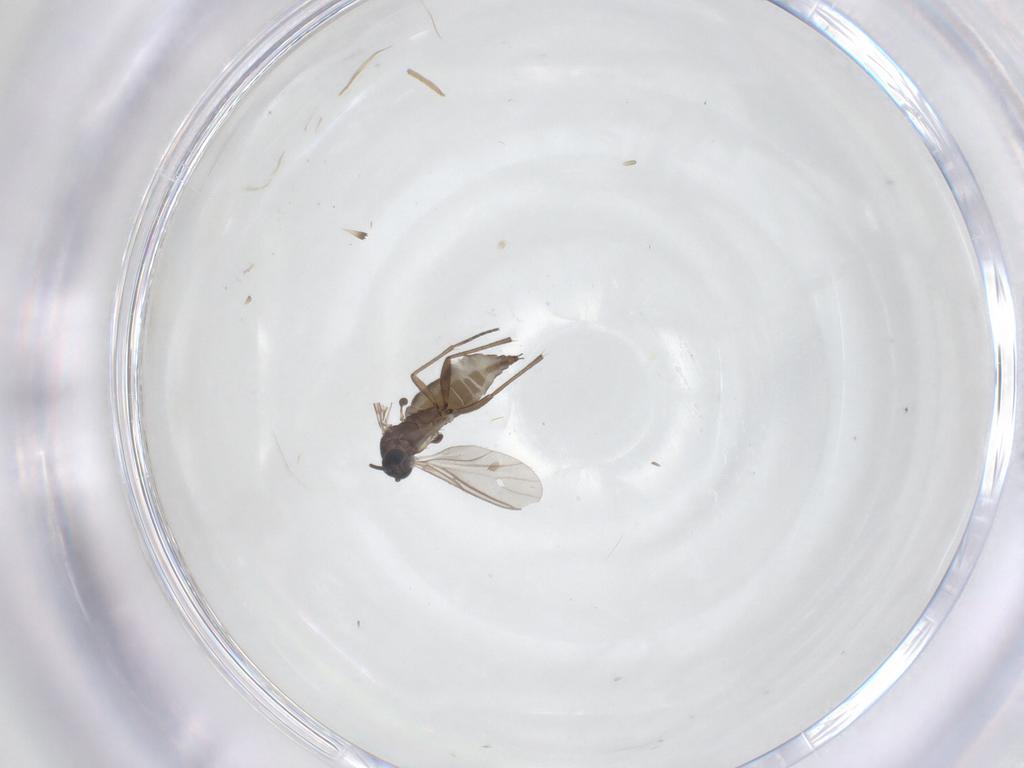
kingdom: Animalia
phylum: Arthropoda
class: Insecta
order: Diptera
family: Sciaridae
